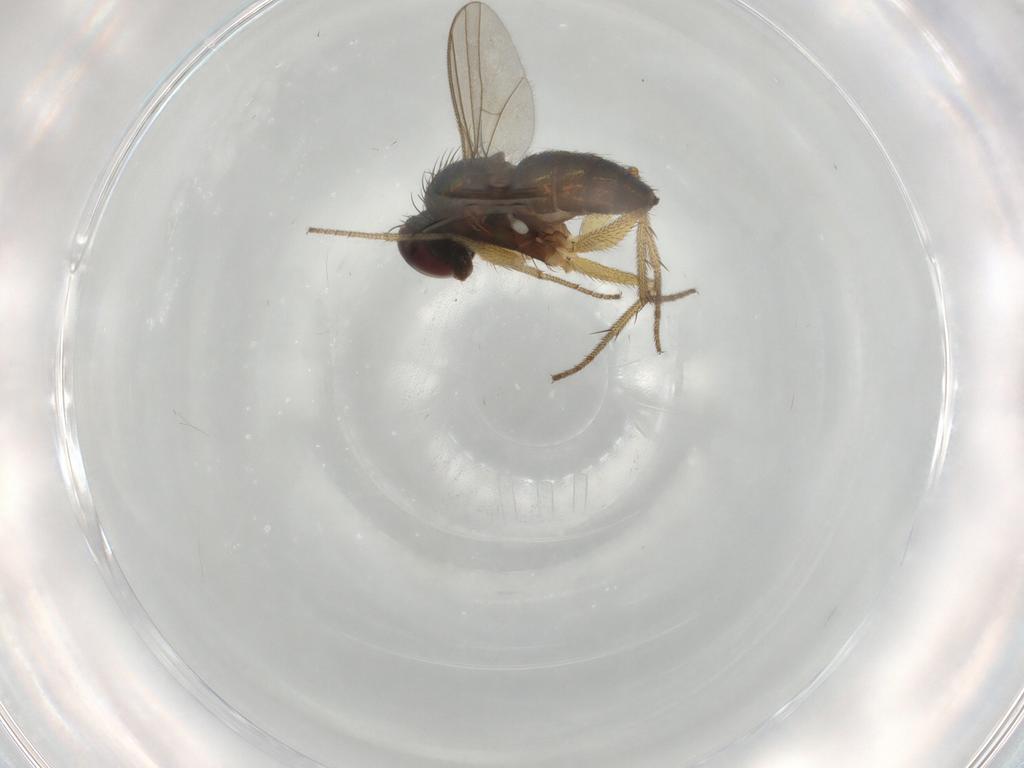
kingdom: Animalia
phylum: Arthropoda
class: Insecta
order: Diptera
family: Dolichopodidae
